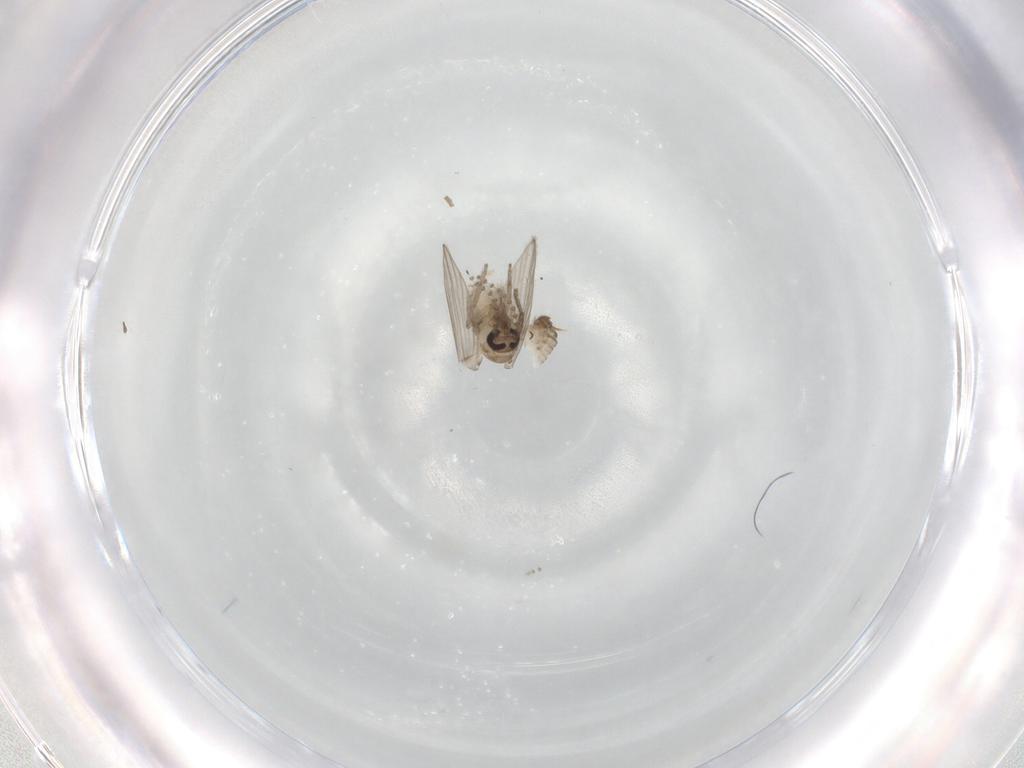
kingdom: Animalia
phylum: Arthropoda
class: Insecta
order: Diptera
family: Psychodidae
